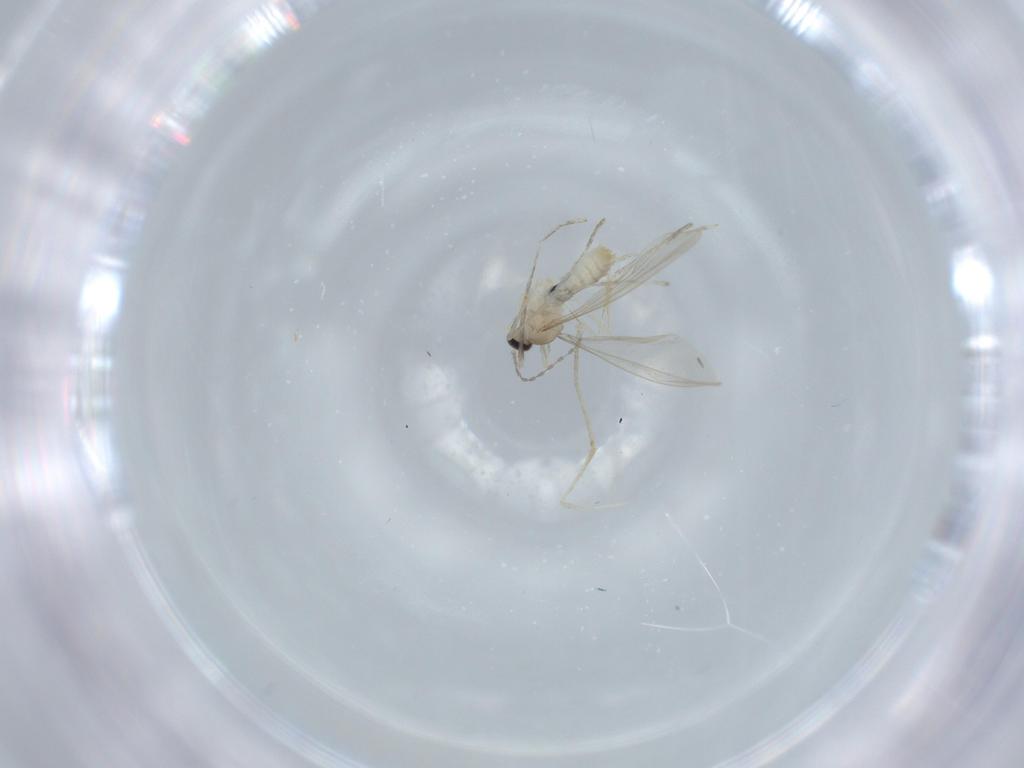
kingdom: Animalia
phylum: Arthropoda
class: Insecta
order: Diptera
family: Cecidomyiidae
